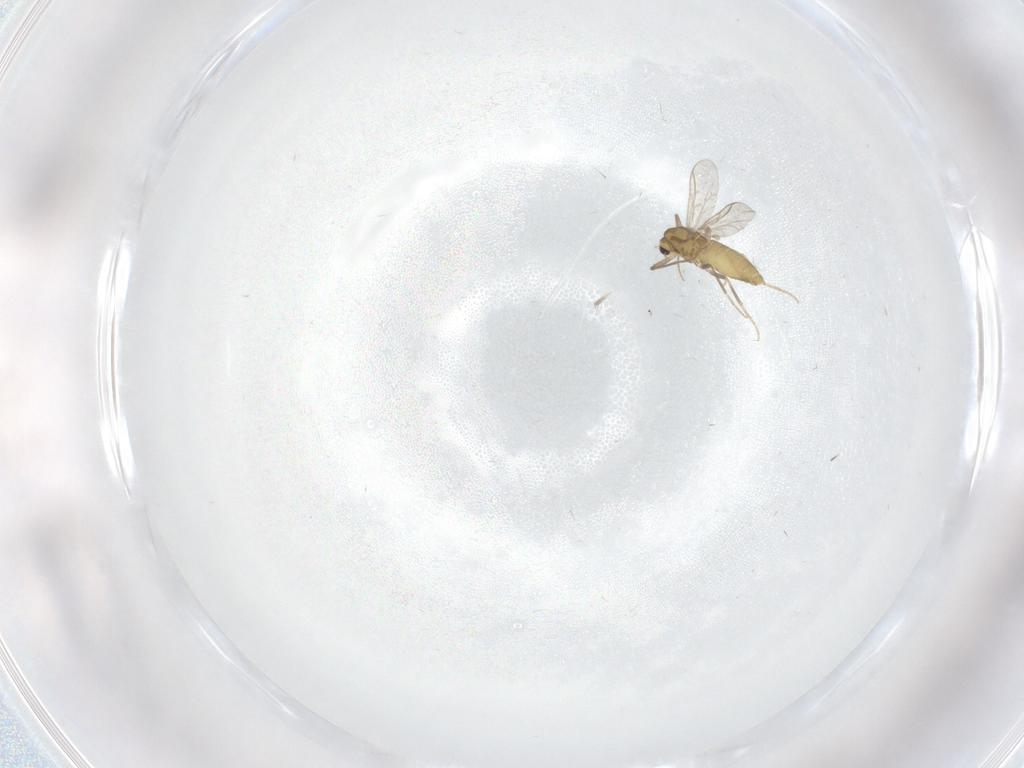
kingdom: Animalia
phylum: Arthropoda
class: Insecta
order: Diptera
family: Chironomidae
